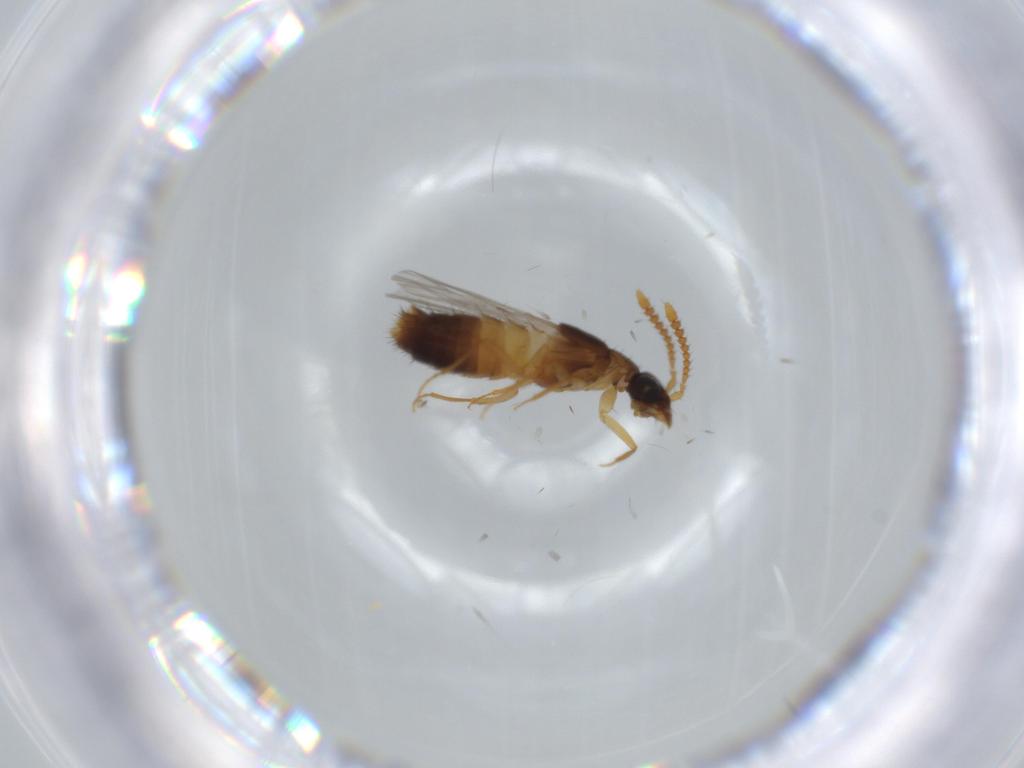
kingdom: Animalia
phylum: Arthropoda
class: Insecta
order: Coleoptera
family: Staphylinidae
